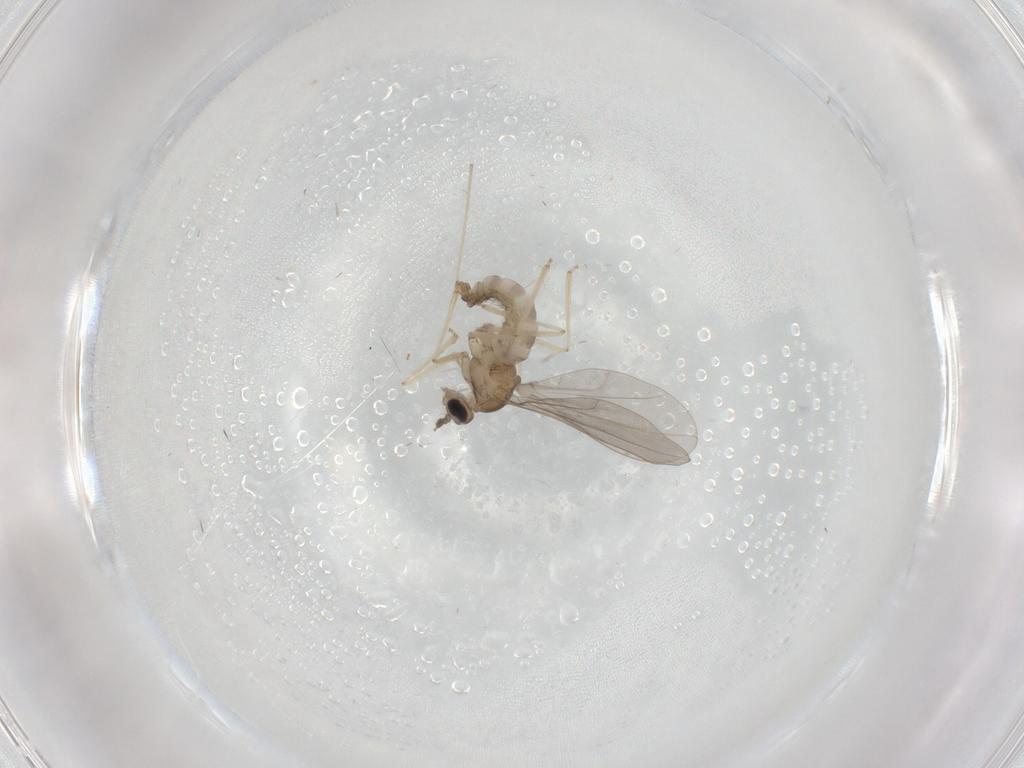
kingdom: Animalia
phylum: Arthropoda
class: Insecta
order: Diptera
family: Cecidomyiidae
